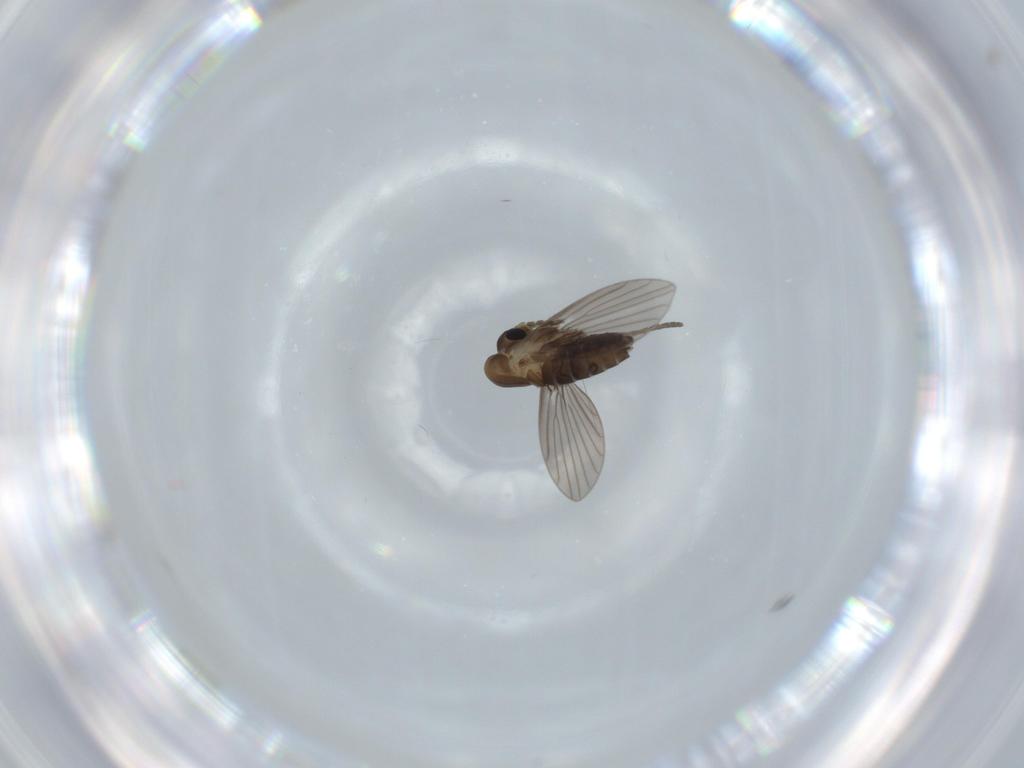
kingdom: Animalia
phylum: Arthropoda
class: Insecta
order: Diptera
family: Psychodidae
